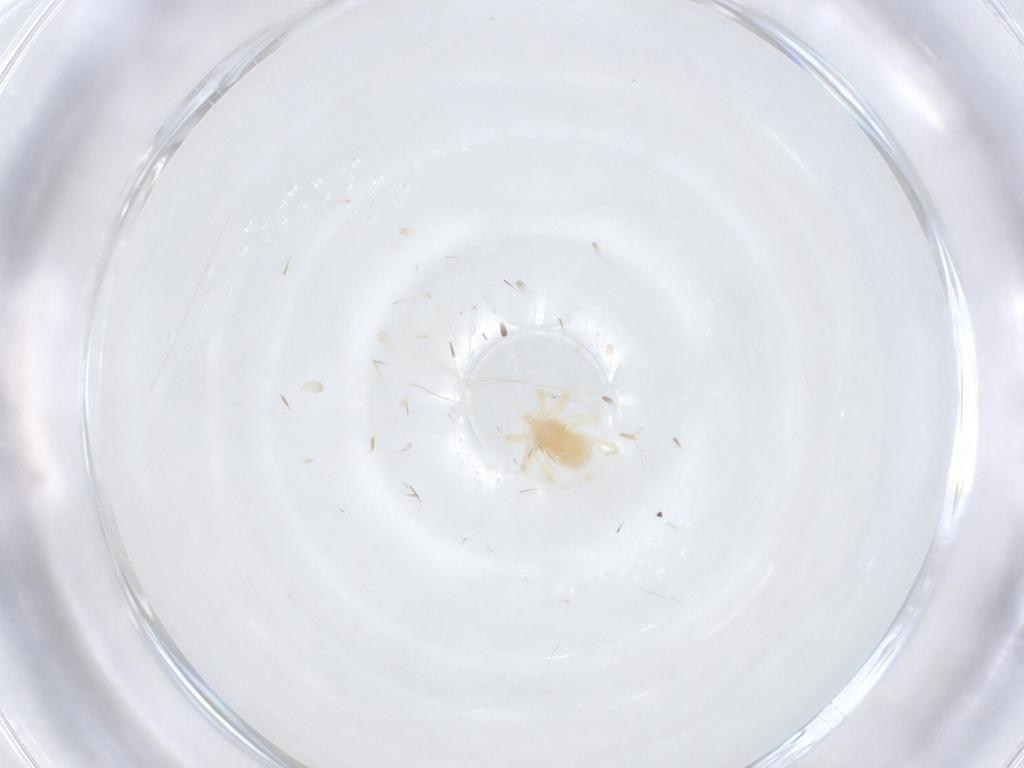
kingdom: Animalia
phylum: Arthropoda
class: Arachnida
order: Trombidiformes
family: Anystidae
